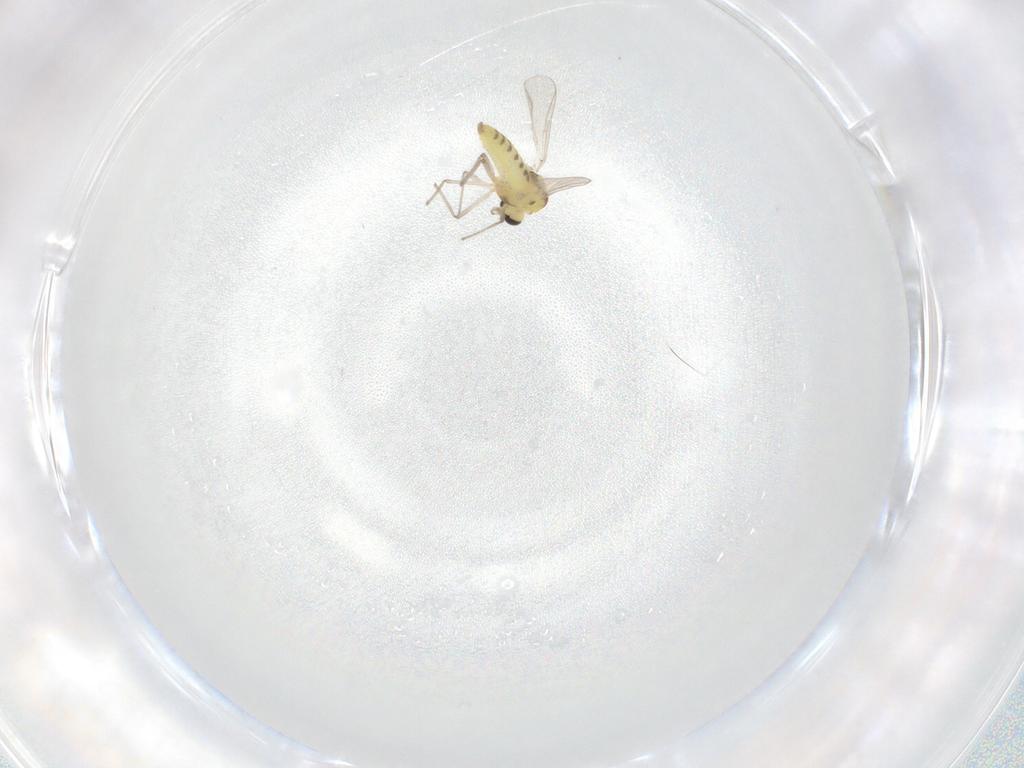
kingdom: Animalia
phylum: Arthropoda
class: Insecta
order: Diptera
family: Chironomidae
